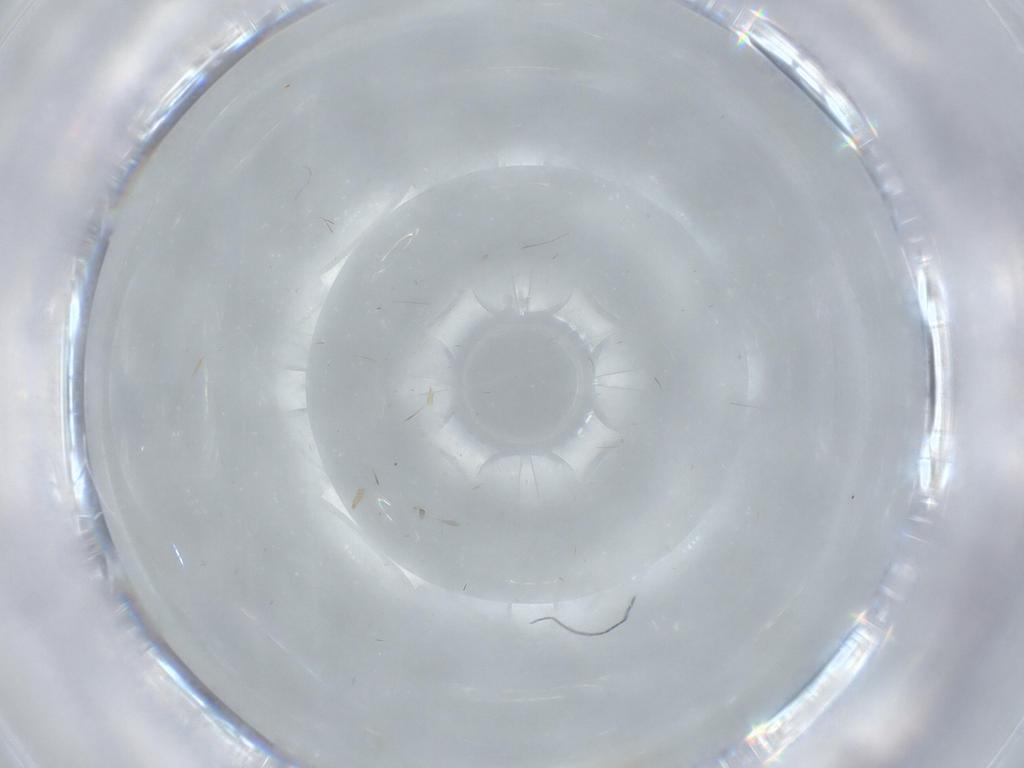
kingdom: Animalia
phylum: Arthropoda
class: Insecta
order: Diptera
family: Cecidomyiidae
